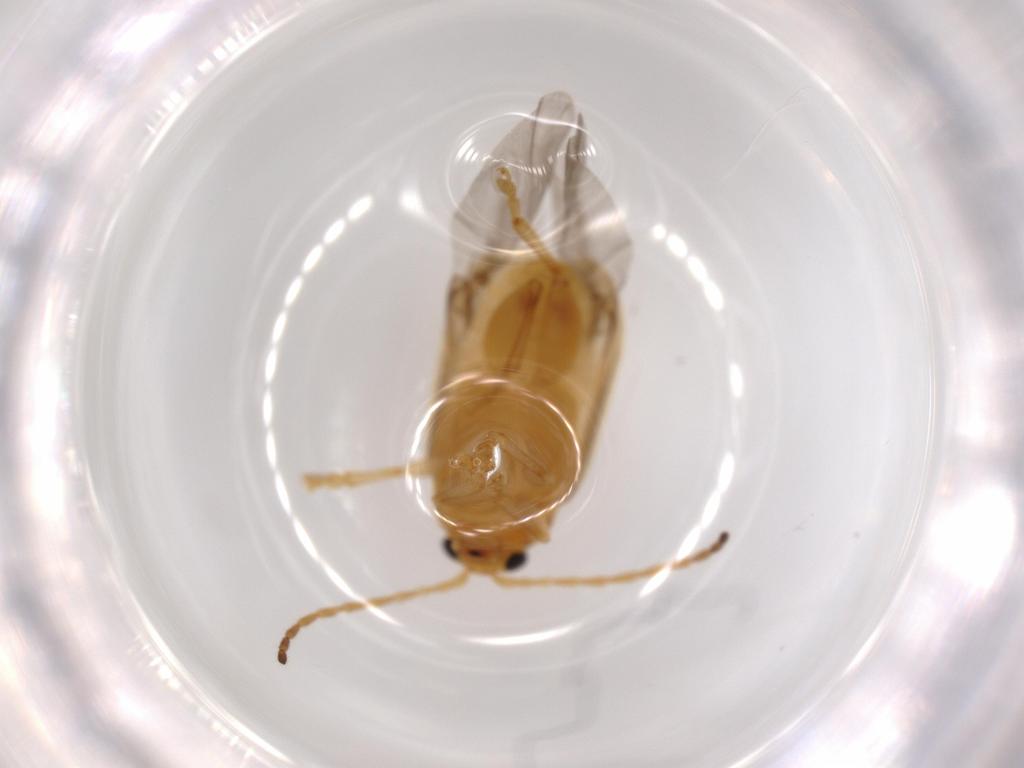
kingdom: Animalia
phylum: Arthropoda
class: Insecta
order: Coleoptera
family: Chrysomelidae
